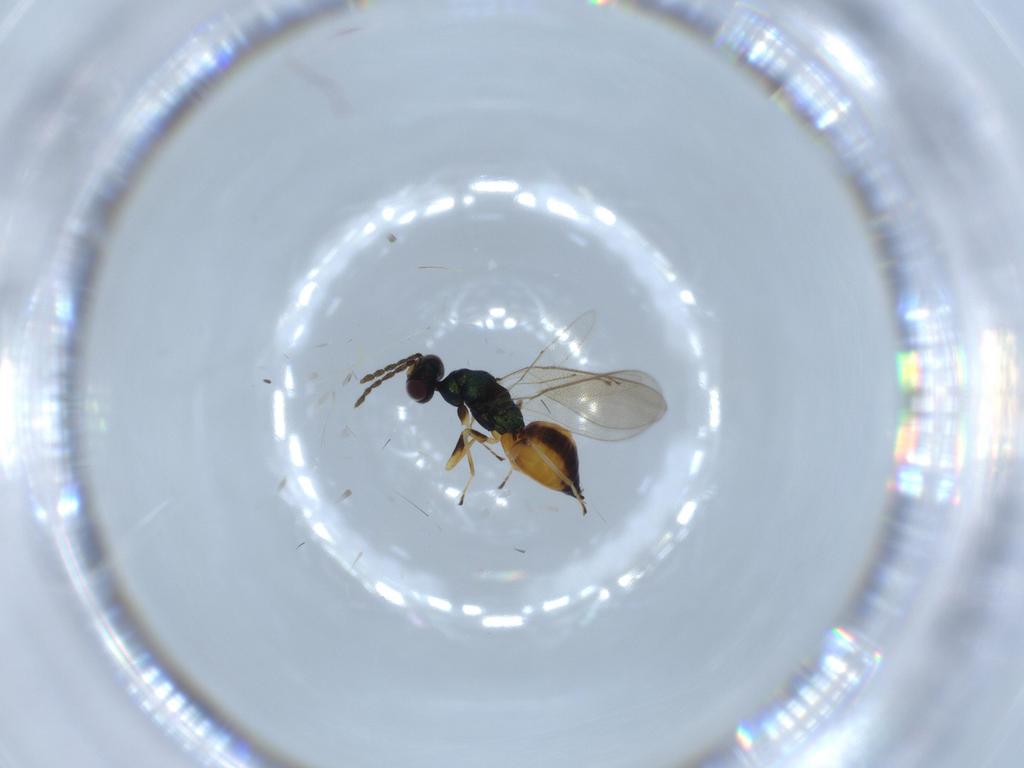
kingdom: Animalia
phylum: Arthropoda
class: Insecta
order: Hymenoptera
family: Eulophidae
